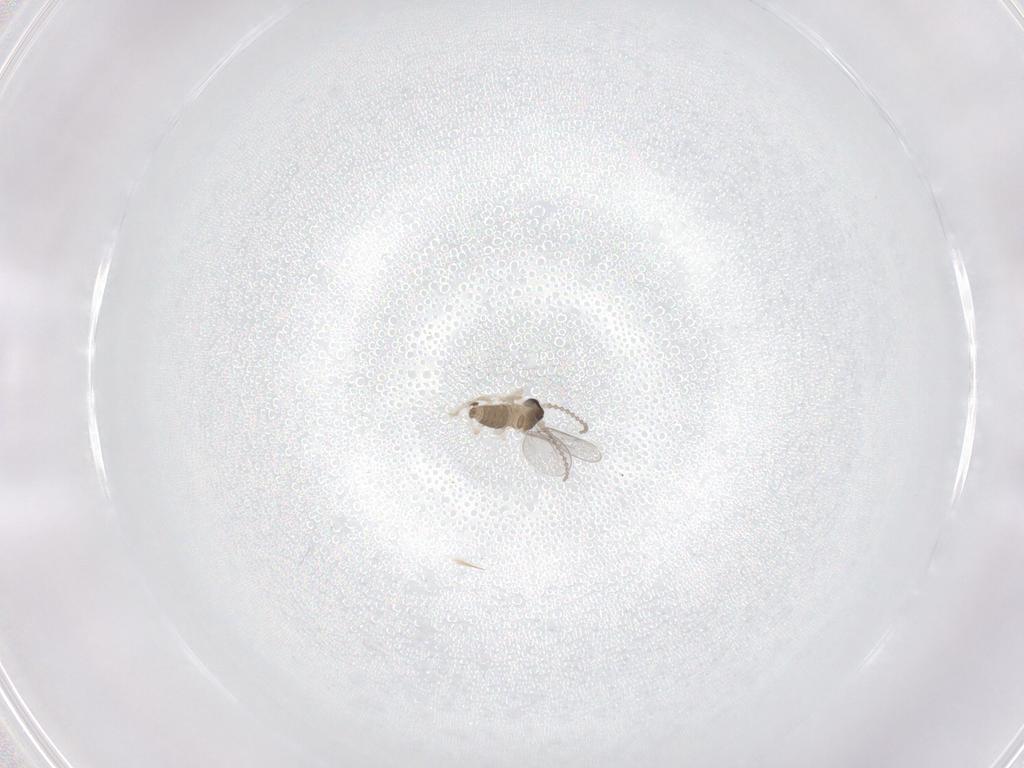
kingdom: Animalia
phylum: Arthropoda
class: Insecta
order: Diptera
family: Cecidomyiidae
